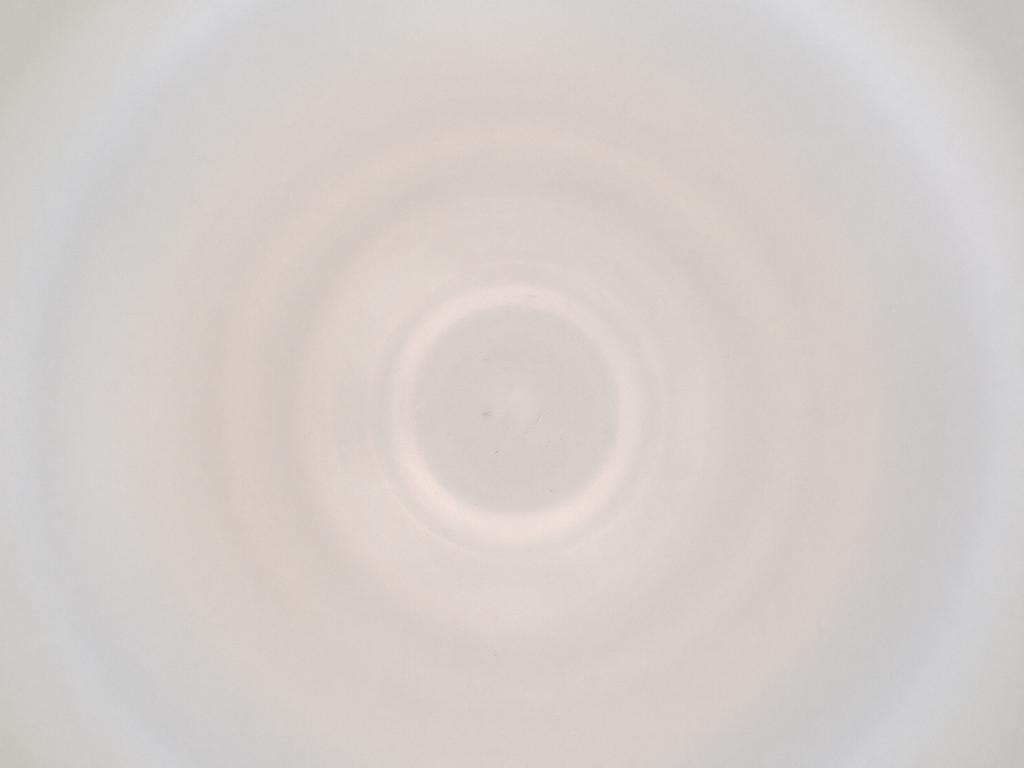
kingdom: Animalia
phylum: Arthropoda
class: Insecta
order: Diptera
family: Cecidomyiidae
